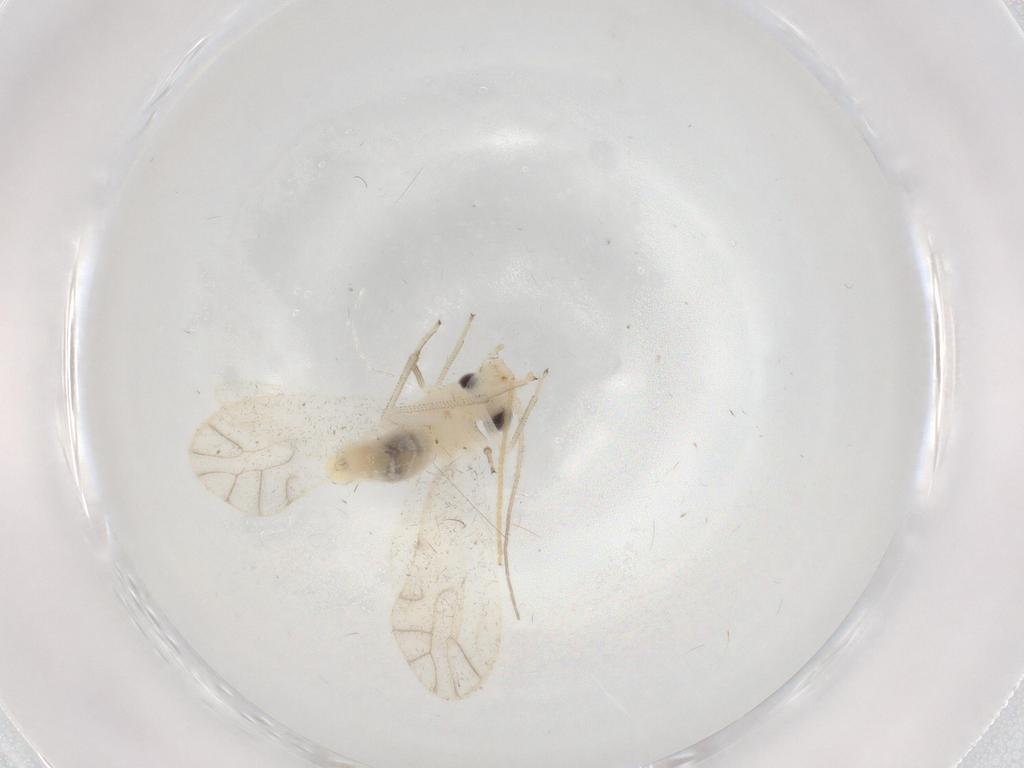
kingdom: Animalia
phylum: Arthropoda
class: Insecta
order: Psocodea
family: Caeciliusidae
